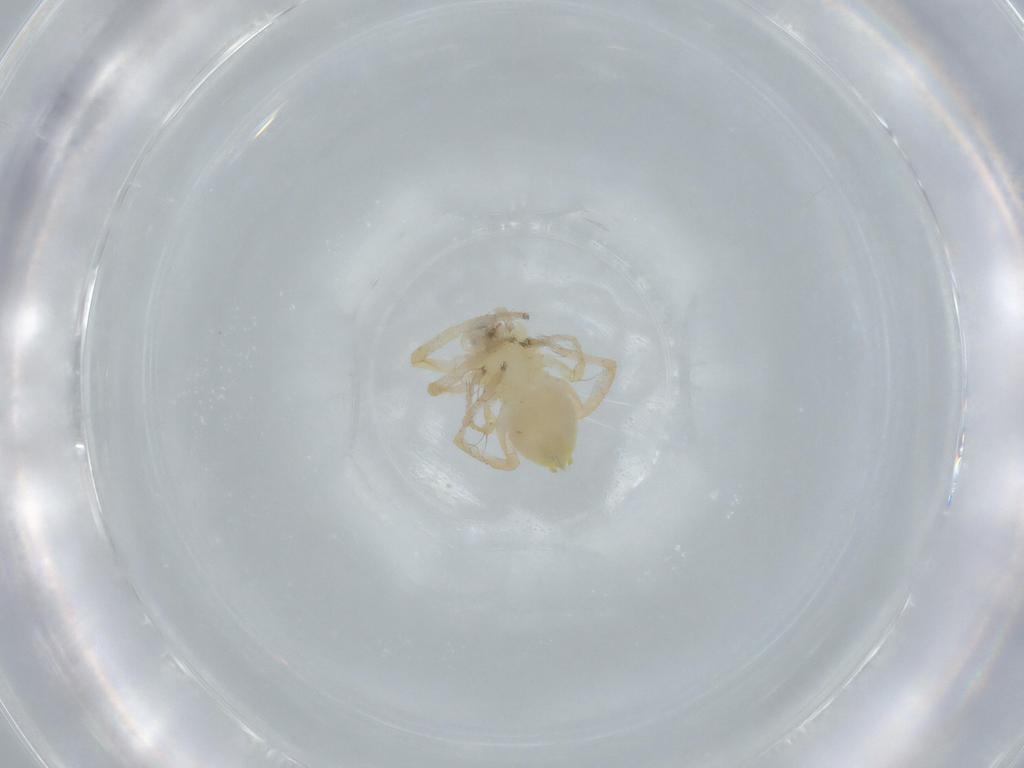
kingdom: Animalia
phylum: Arthropoda
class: Arachnida
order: Araneae
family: Anyphaenidae
